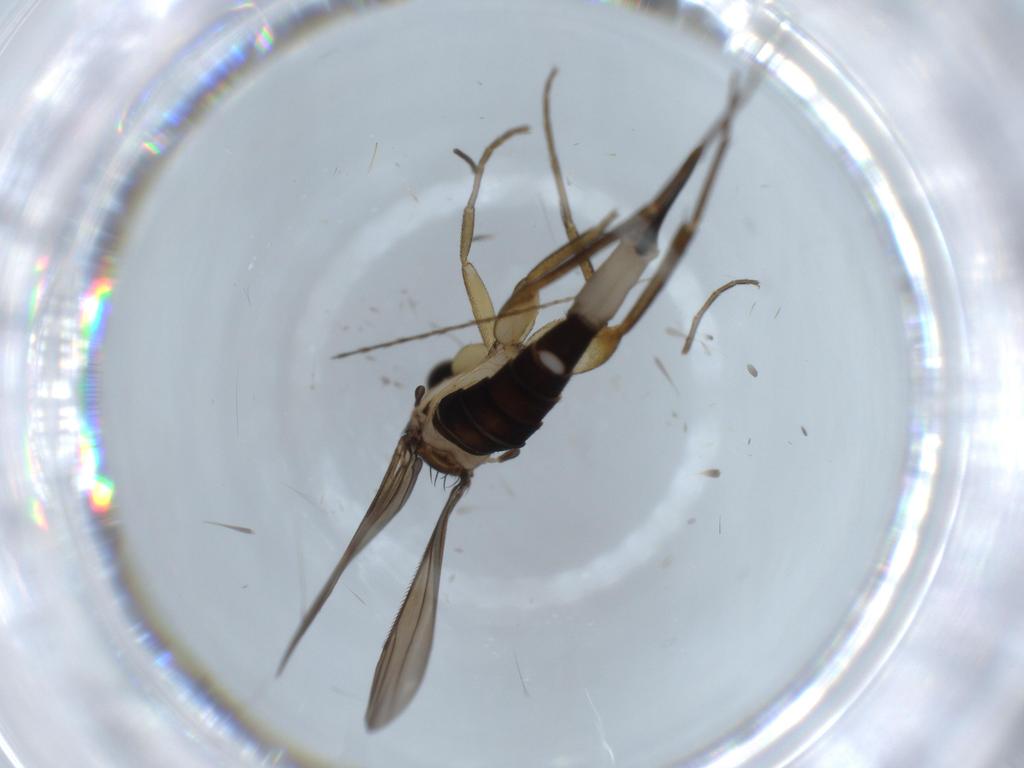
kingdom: Animalia
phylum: Arthropoda
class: Insecta
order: Diptera
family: Phoridae
